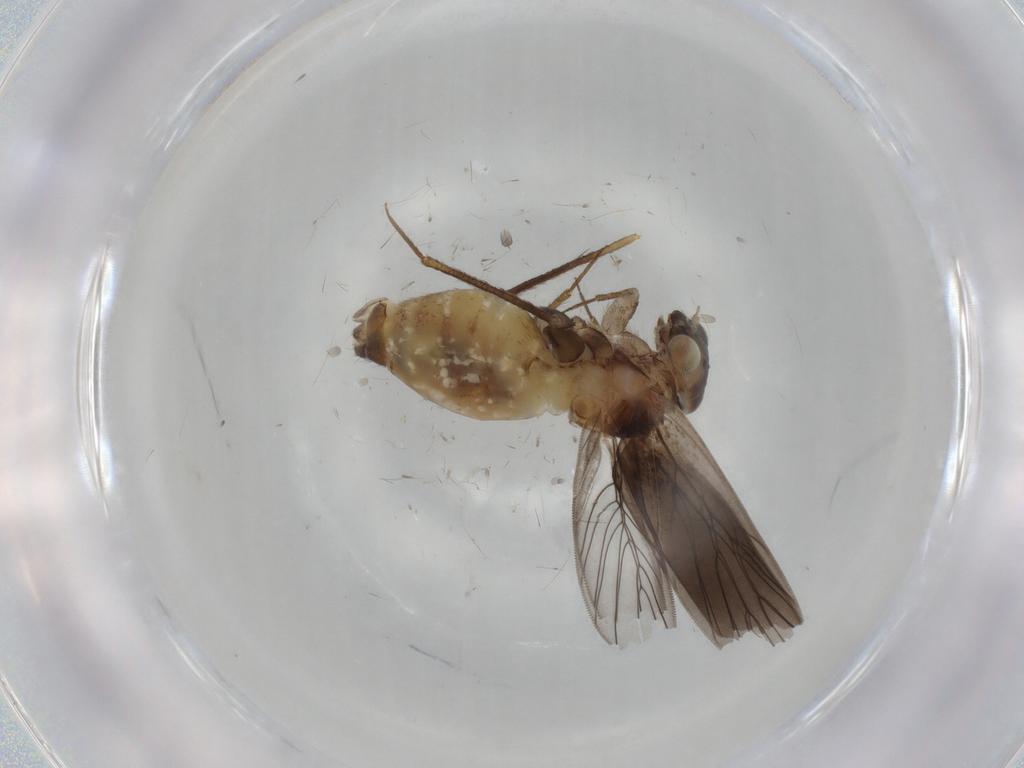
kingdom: Animalia
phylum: Arthropoda
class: Insecta
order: Psocodea
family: Lepidopsocidae
